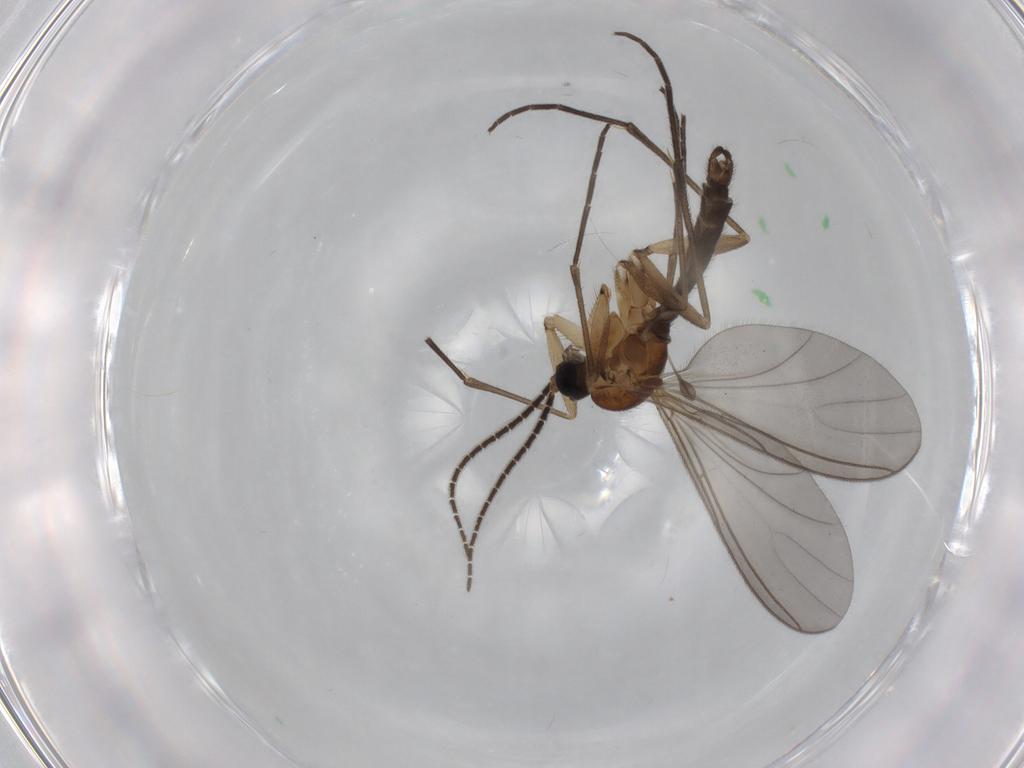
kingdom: Animalia
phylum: Arthropoda
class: Insecta
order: Diptera
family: Sciaridae
